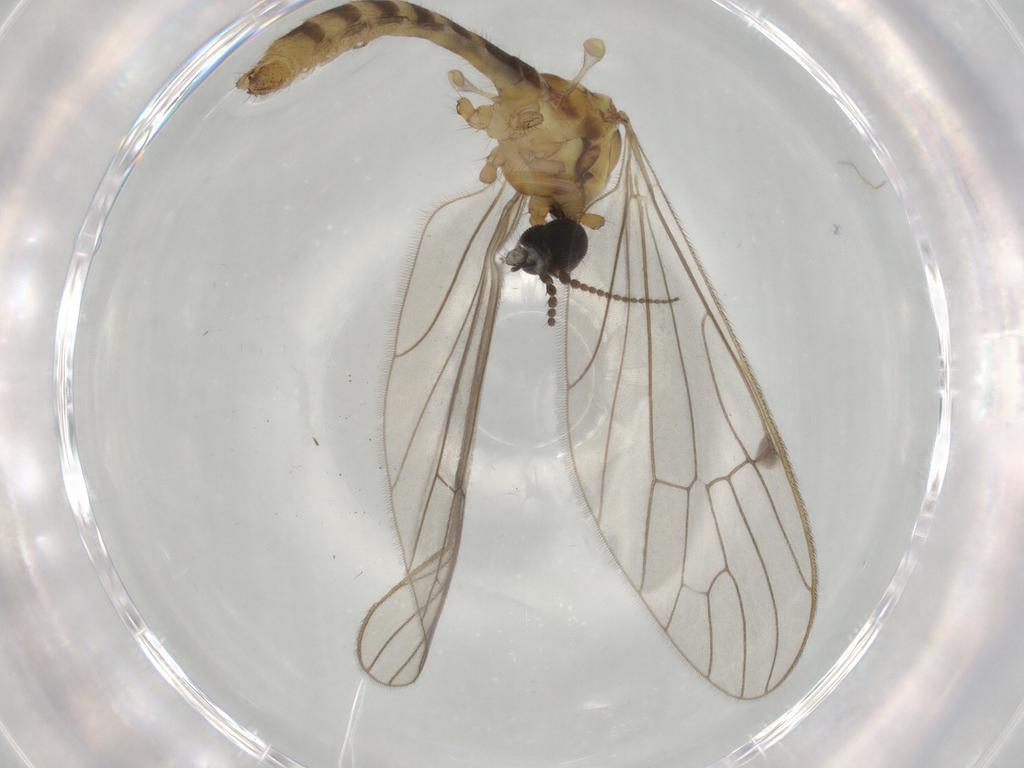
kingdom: Animalia
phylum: Arthropoda
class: Insecta
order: Diptera
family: Limoniidae
